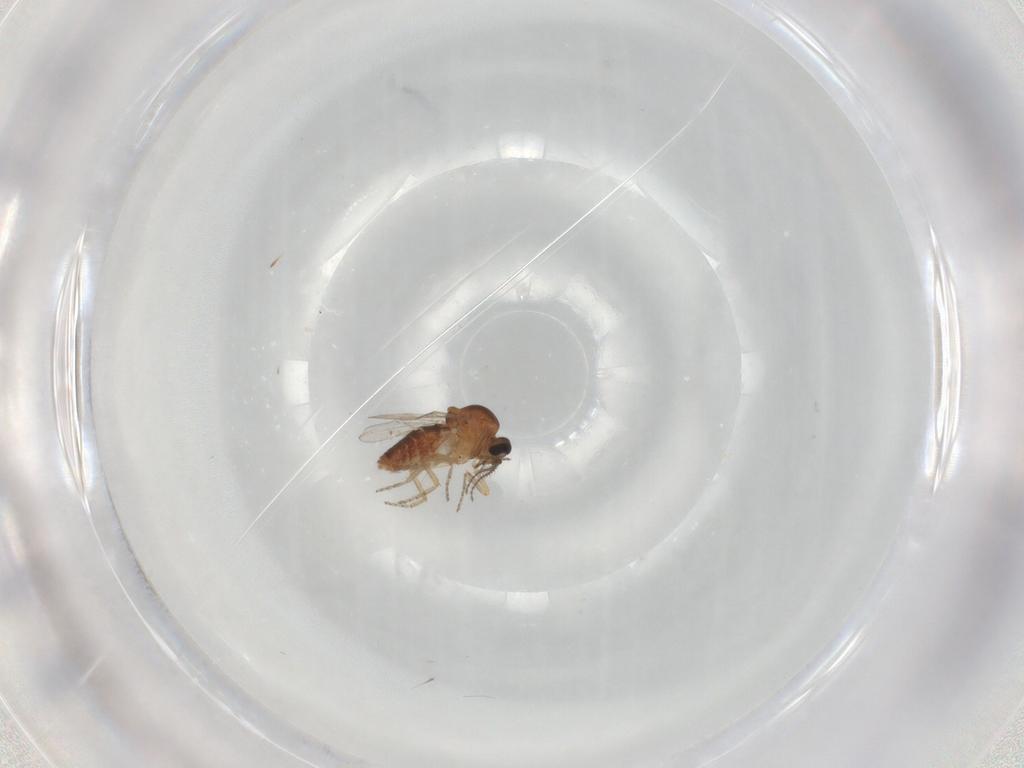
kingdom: Animalia
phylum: Arthropoda
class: Insecta
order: Diptera
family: Ceratopogonidae
